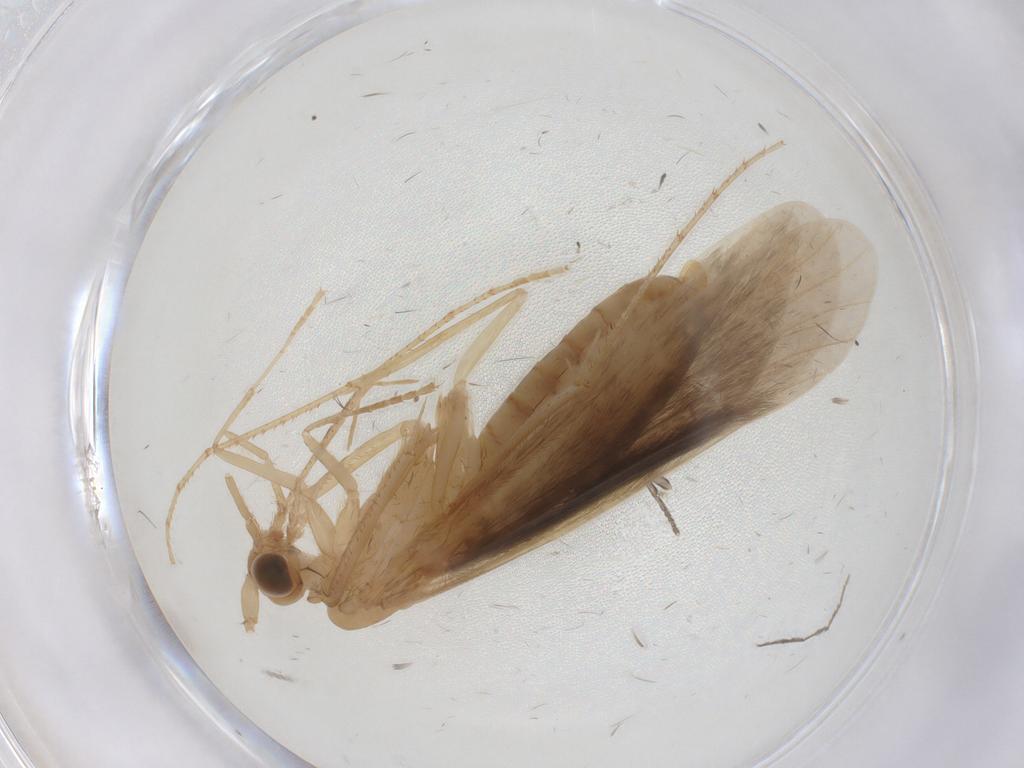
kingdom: Animalia
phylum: Arthropoda
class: Insecta
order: Trichoptera
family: Leptoceridae
